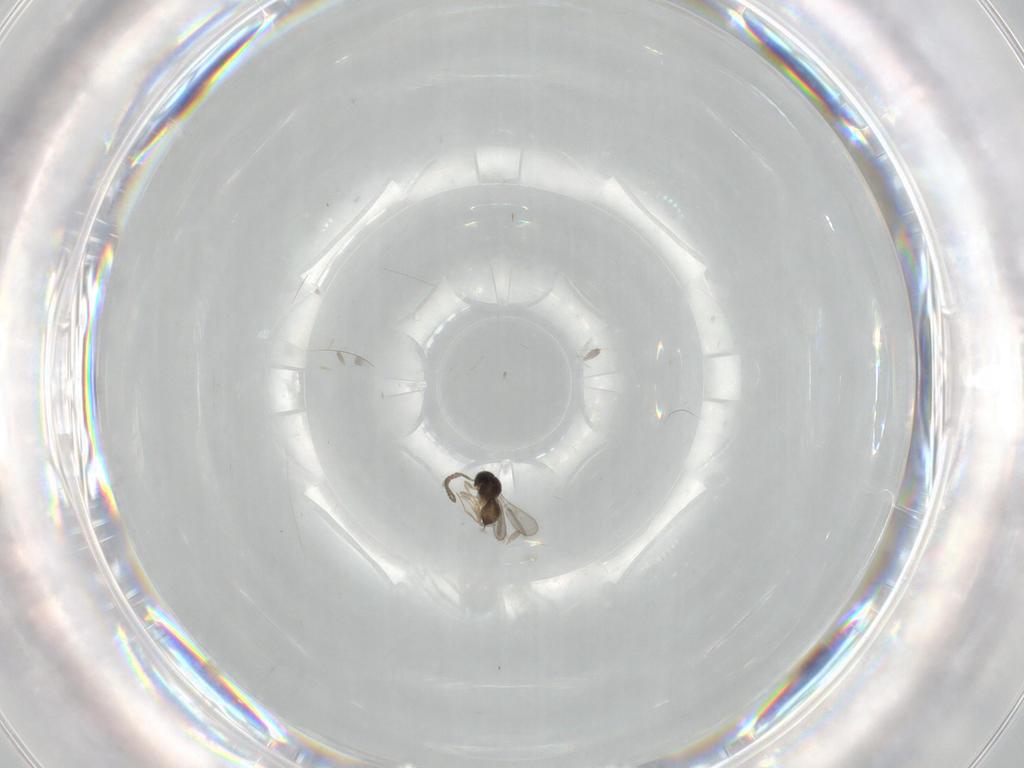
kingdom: Animalia
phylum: Arthropoda
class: Insecta
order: Hymenoptera
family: Scelionidae
